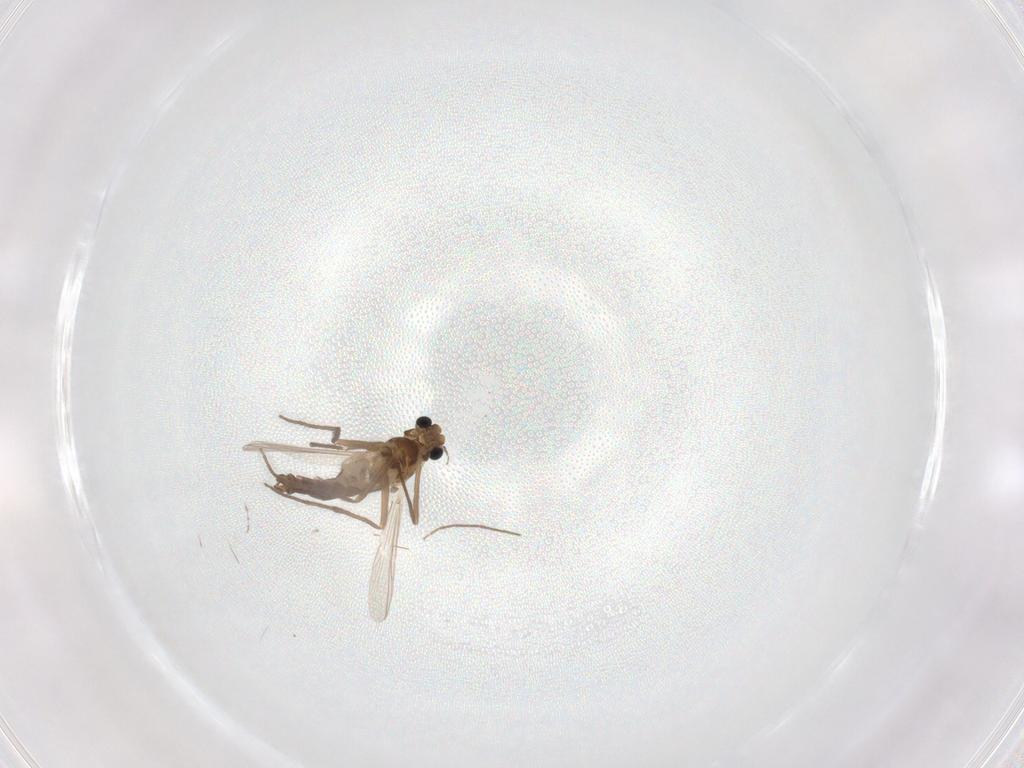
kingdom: Animalia
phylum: Arthropoda
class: Insecta
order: Diptera
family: Chironomidae
